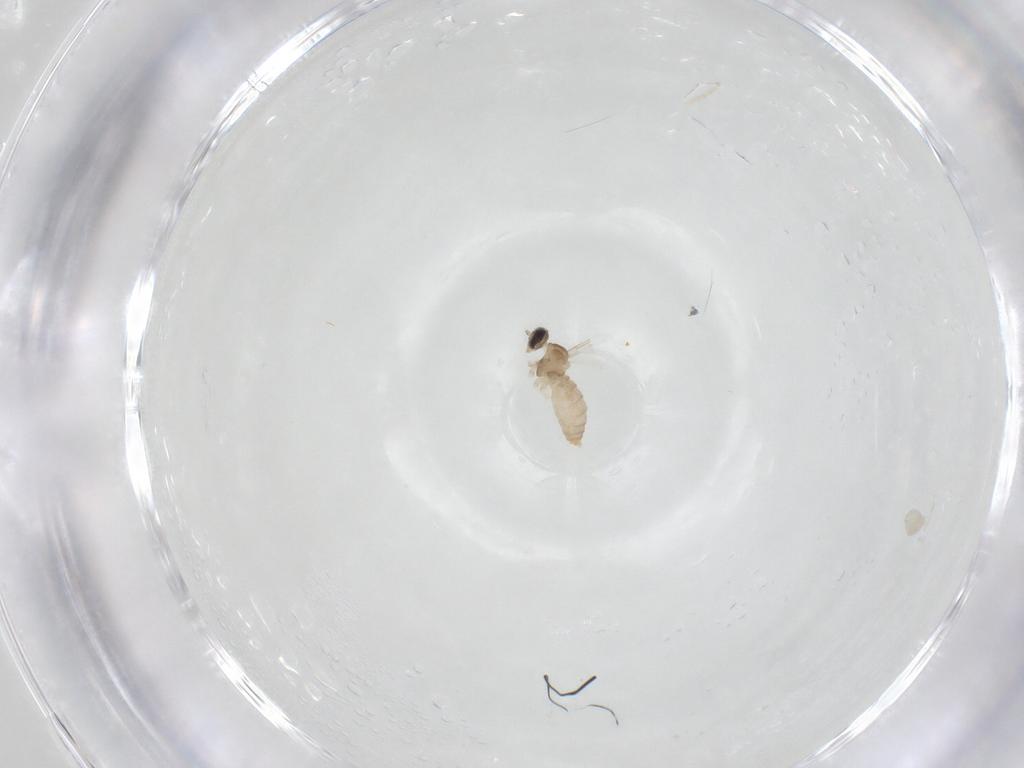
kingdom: Animalia
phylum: Arthropoda
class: Insecta
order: Diptera
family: Cecidomyiidae
